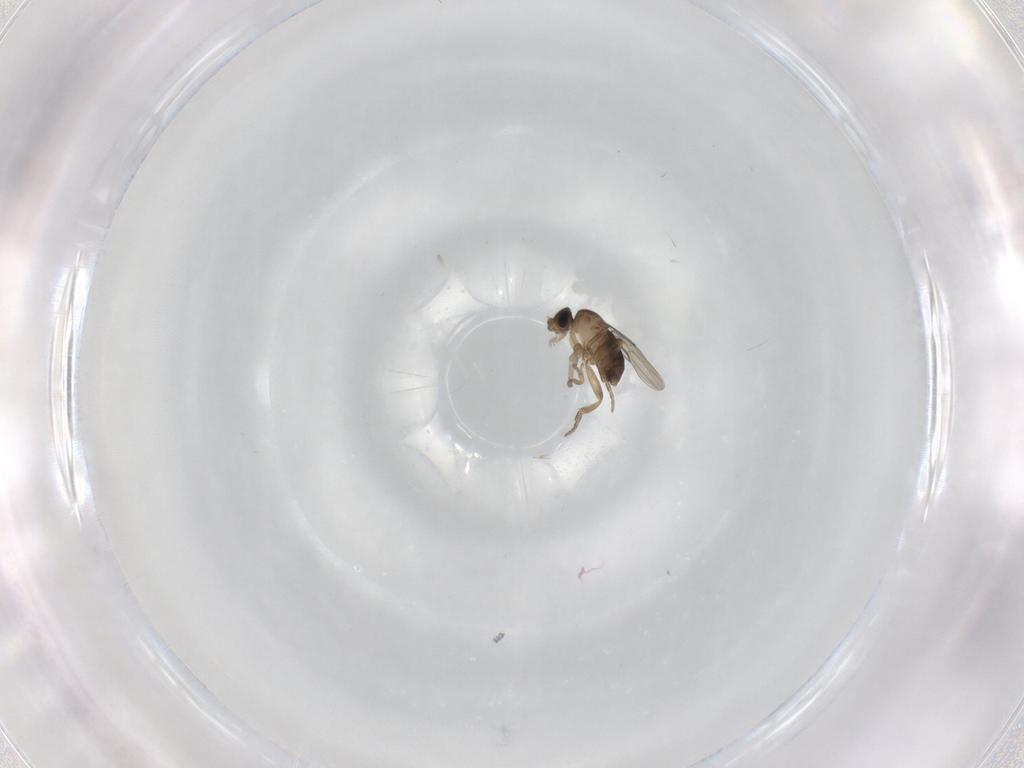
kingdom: Animalia
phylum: Arthropoda
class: Insecta
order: Diptera
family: Phoridae
